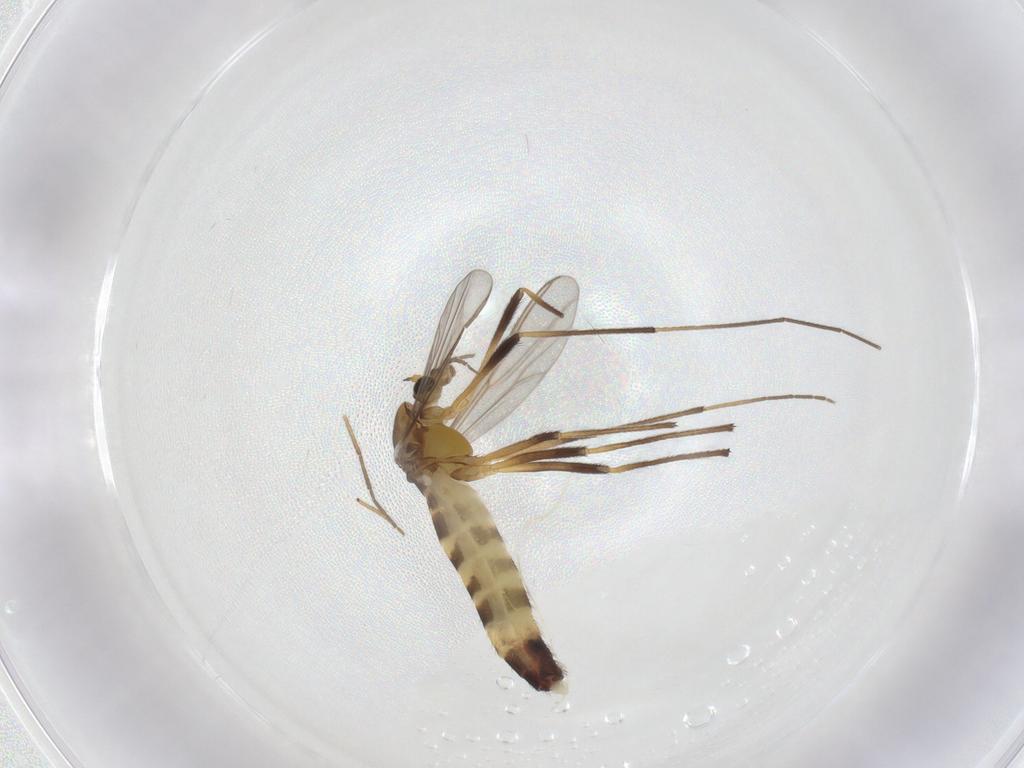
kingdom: Animalia
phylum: Arthropoda
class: Insecta
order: Diptera
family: Chironomidae
